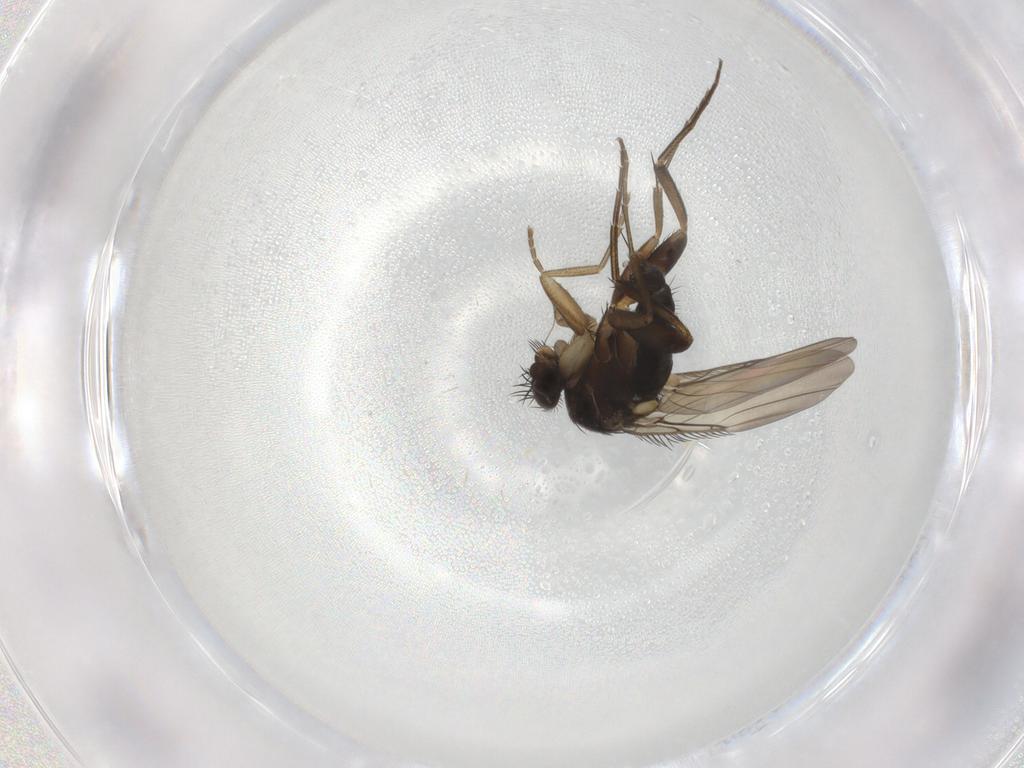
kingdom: Animalia
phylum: Arthropoda
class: Insecta
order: Diptera
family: Phoridae
